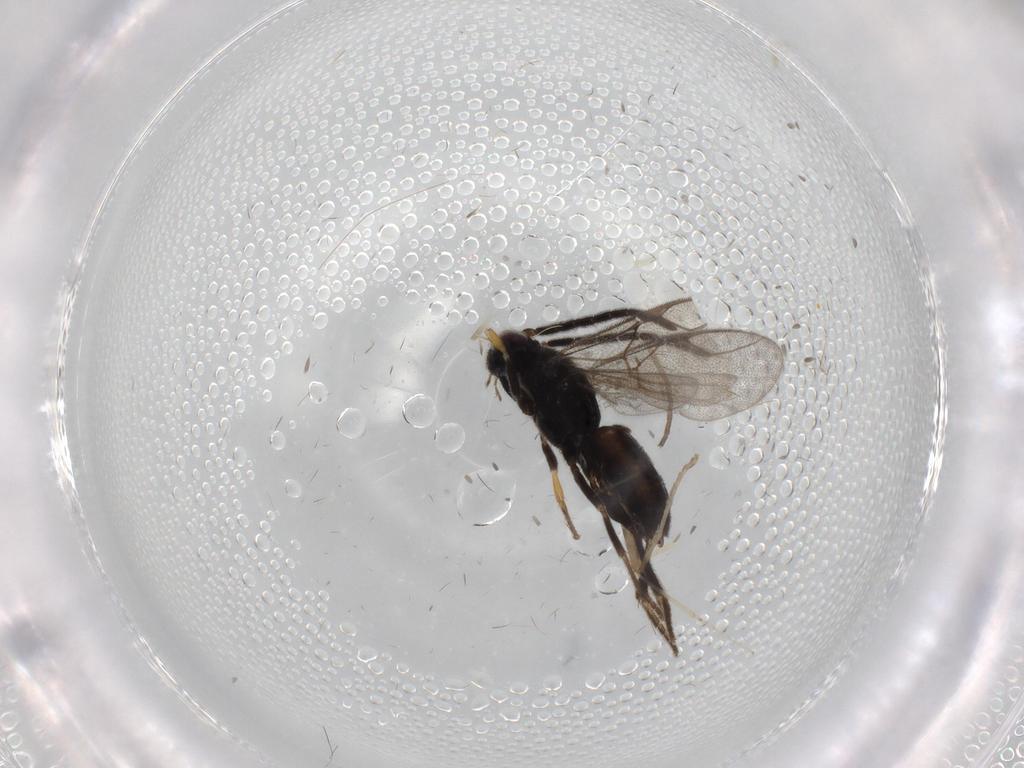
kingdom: Animalia
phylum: Arthropoda
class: Insecta
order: Hymenoptera
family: Dryinidae
